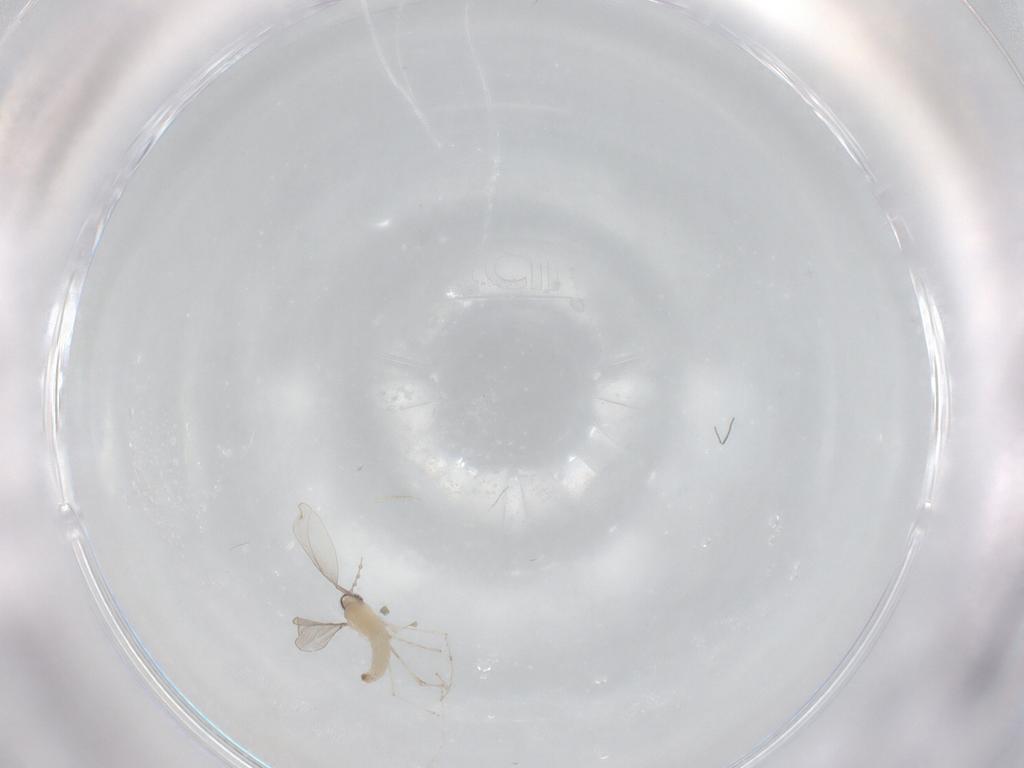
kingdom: Animalia
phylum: Arthropoda
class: Insecta
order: Diptera
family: Cecidomyiidae
